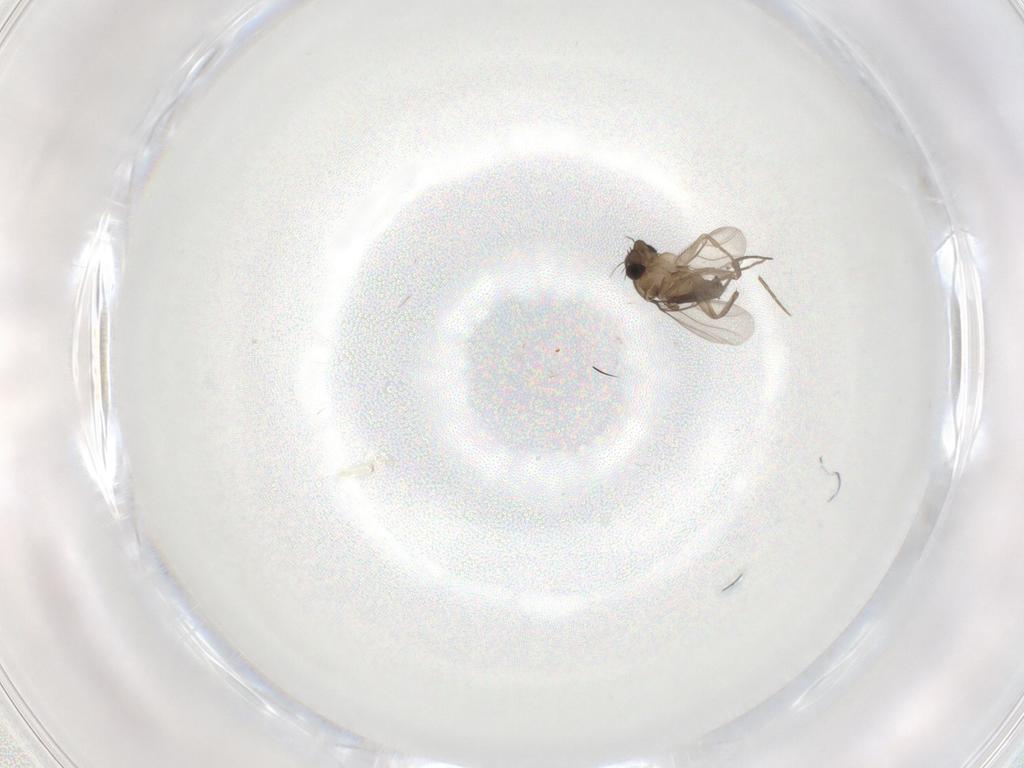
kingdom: Animalia
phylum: Arthropoda
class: Insecta
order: Diptera
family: Phoridae
